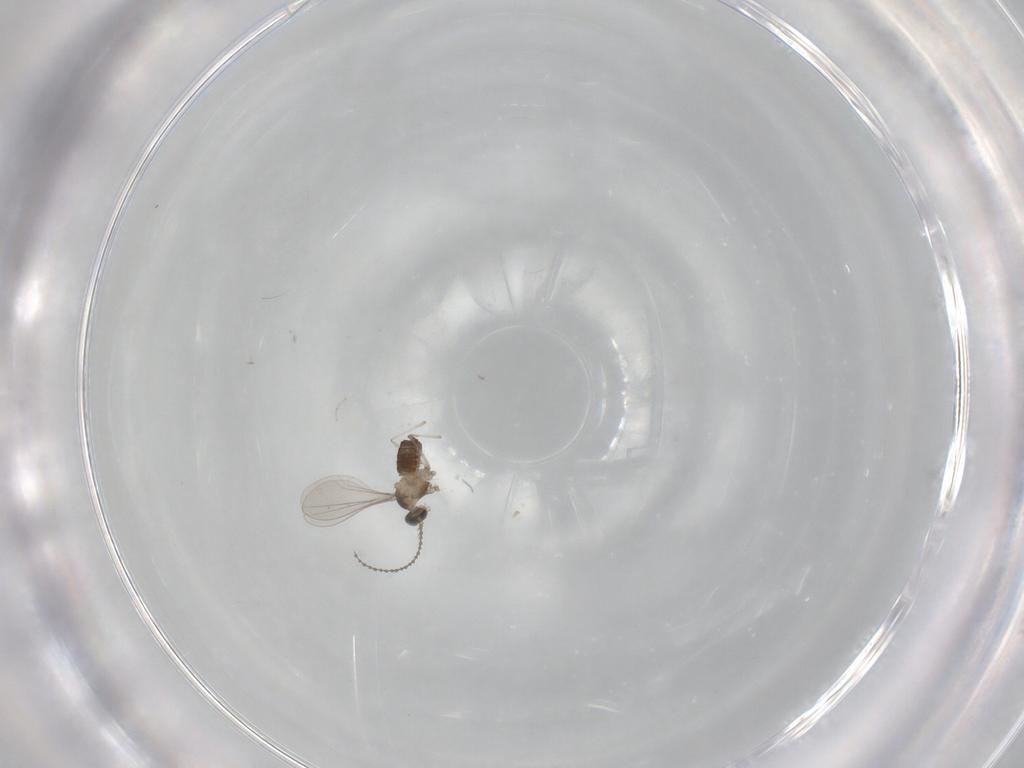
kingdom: Animalia
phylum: Arthropoda
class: Insecta
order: Diptera
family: Cecidomyiidae
